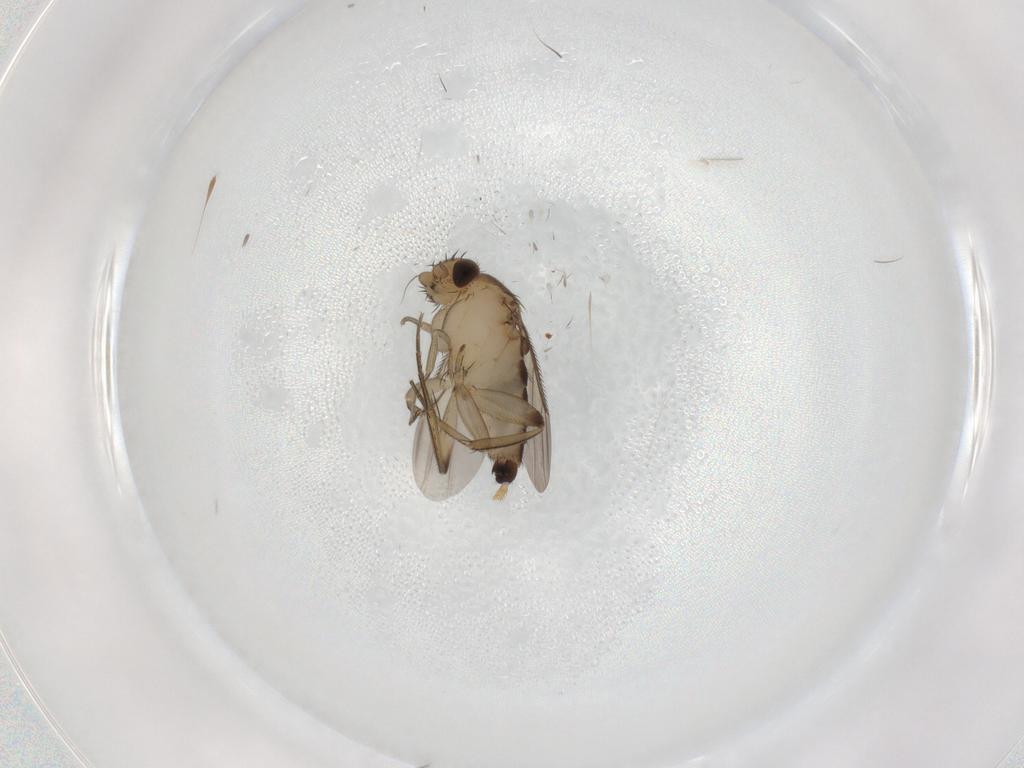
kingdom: Animalia
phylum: Arthropoda
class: Insecta
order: Diptera
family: Phoridae
